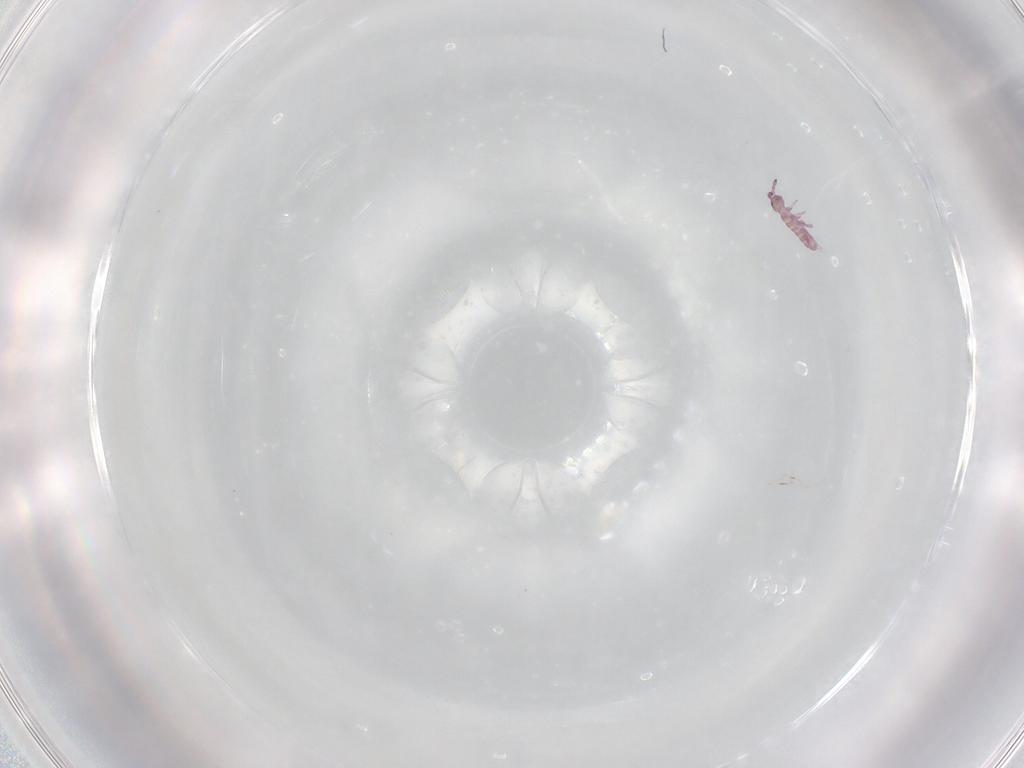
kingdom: Animalia
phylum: Arthropoda
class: Collembola
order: Entomobryomorpha
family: Isotomidae
